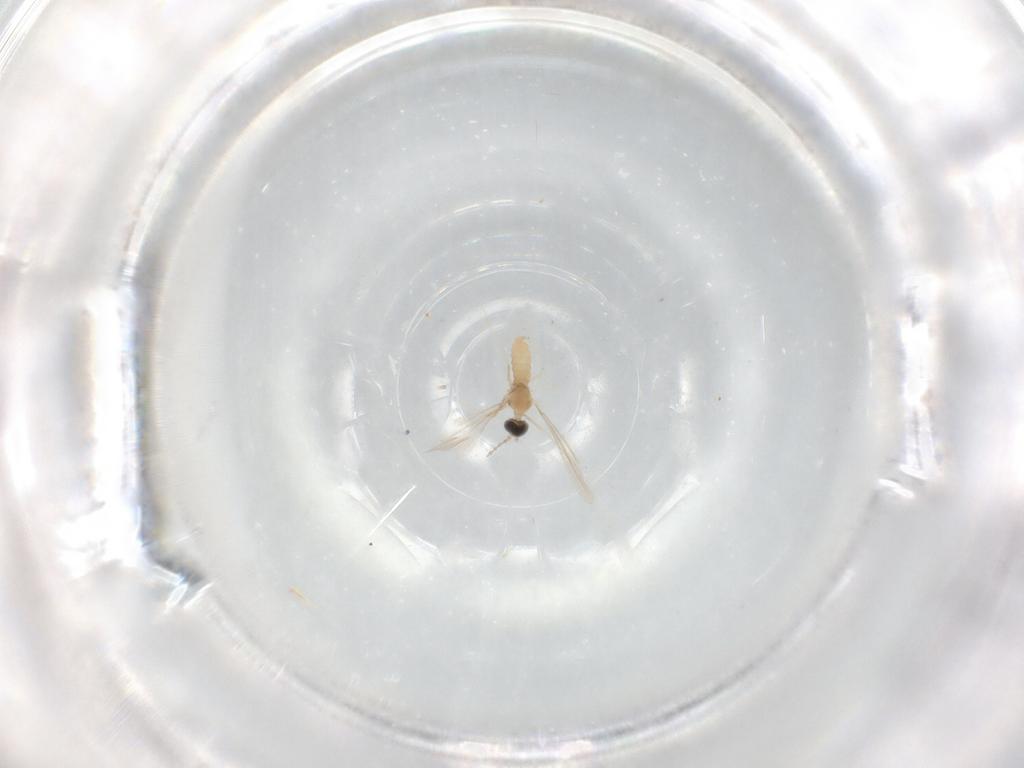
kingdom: Animalia
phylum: Arthropoda
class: Insecta
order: Diptera
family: Cecidomyiidae
